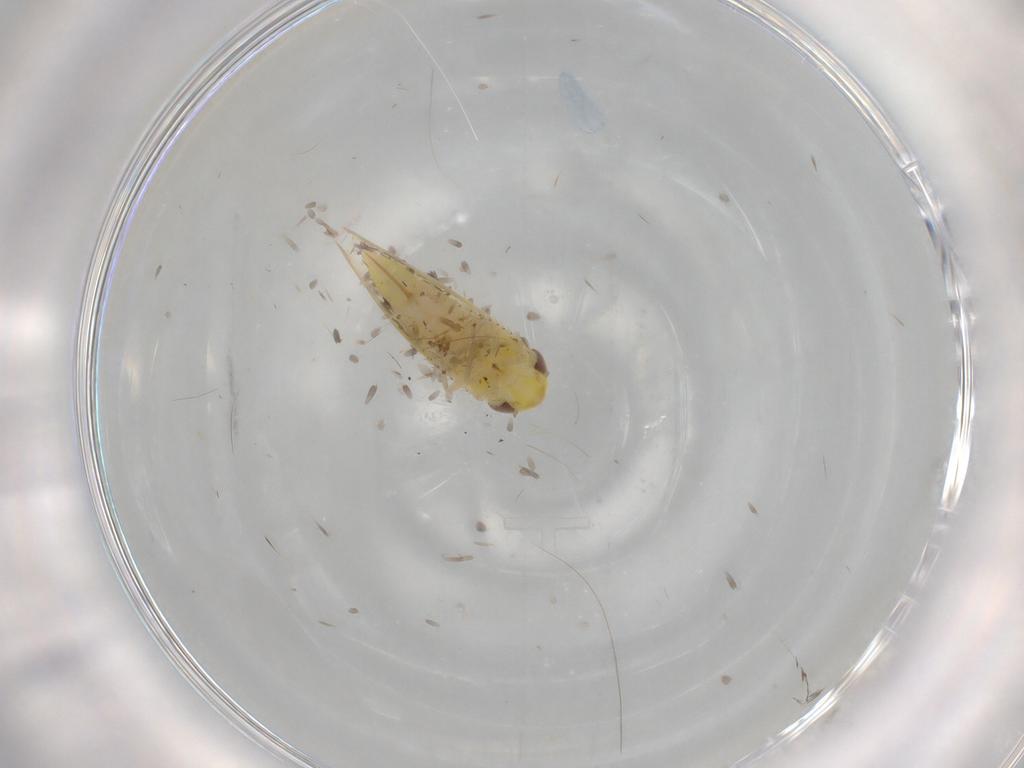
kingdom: Animalia
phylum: Arthropoda
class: Insecta
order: Hemiptera
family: Cicadellidae
